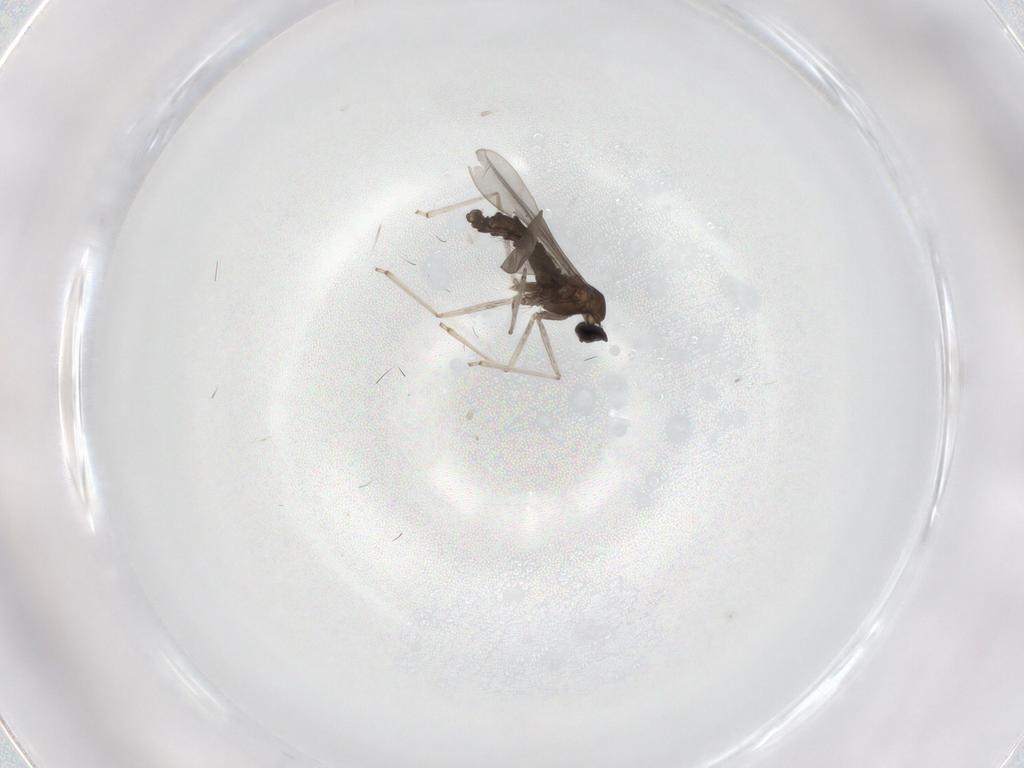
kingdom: Animalia
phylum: Arthropoda
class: Insecta
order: Diptera
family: Cecidomyiidae
